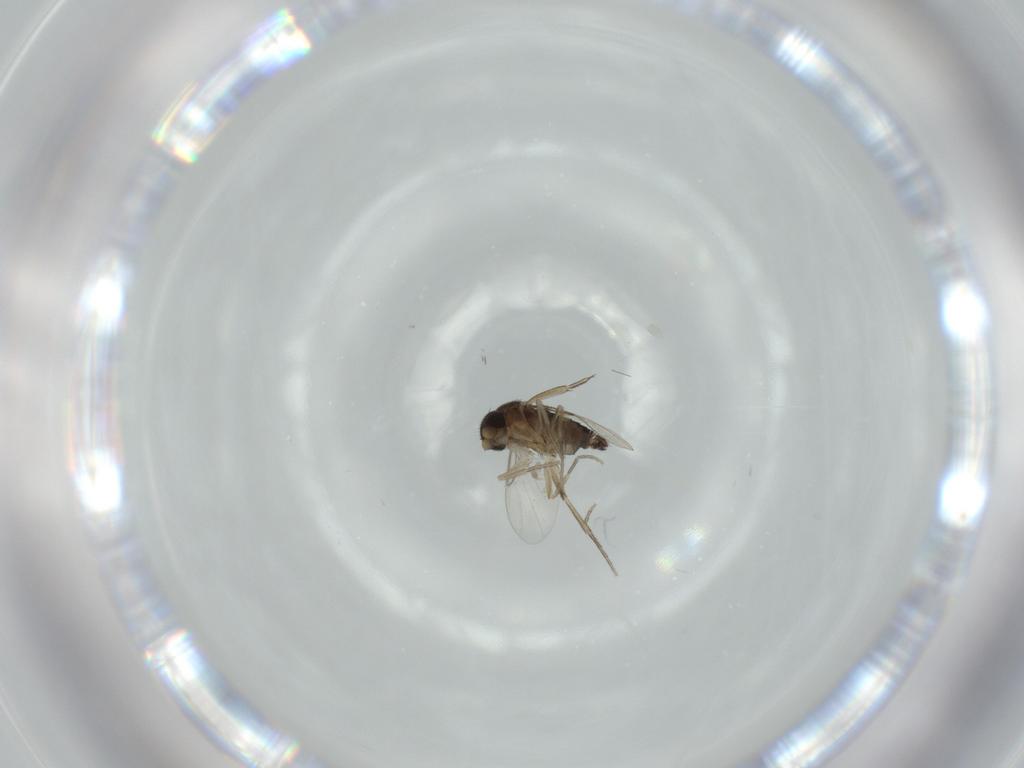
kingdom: Animalia
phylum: Arthropoda
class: Insecta
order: Diptera
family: Phoridae
